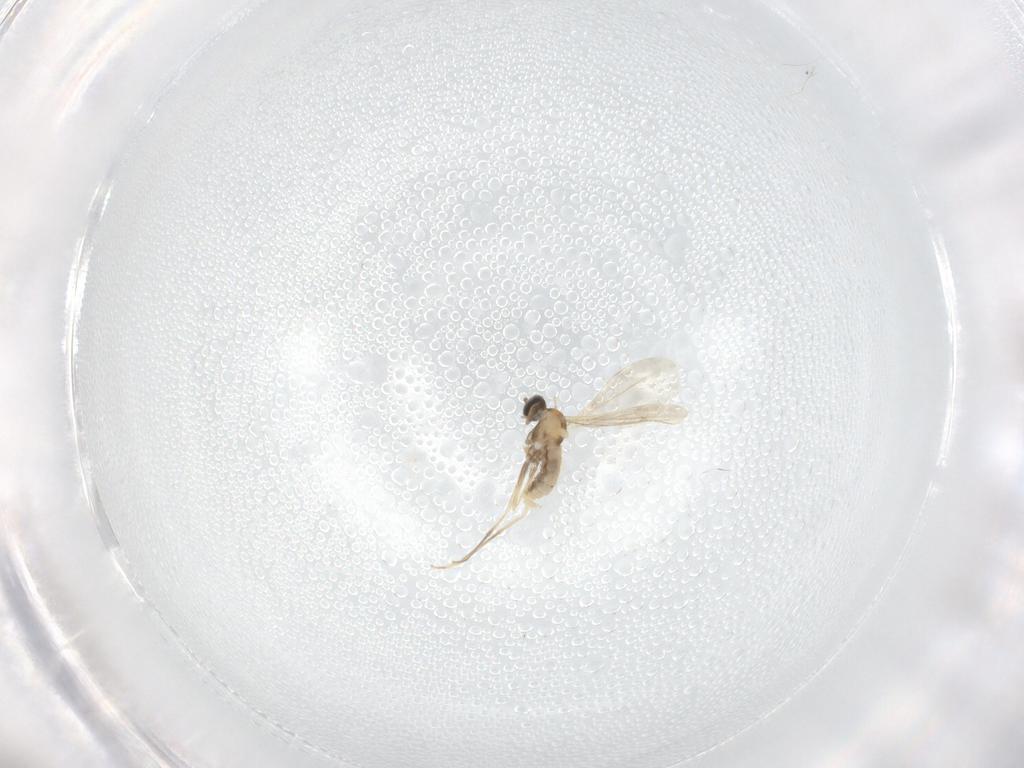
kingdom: Animalia
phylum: Arthropoda
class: Insecta
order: Diptera
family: Cecidomyiidae
